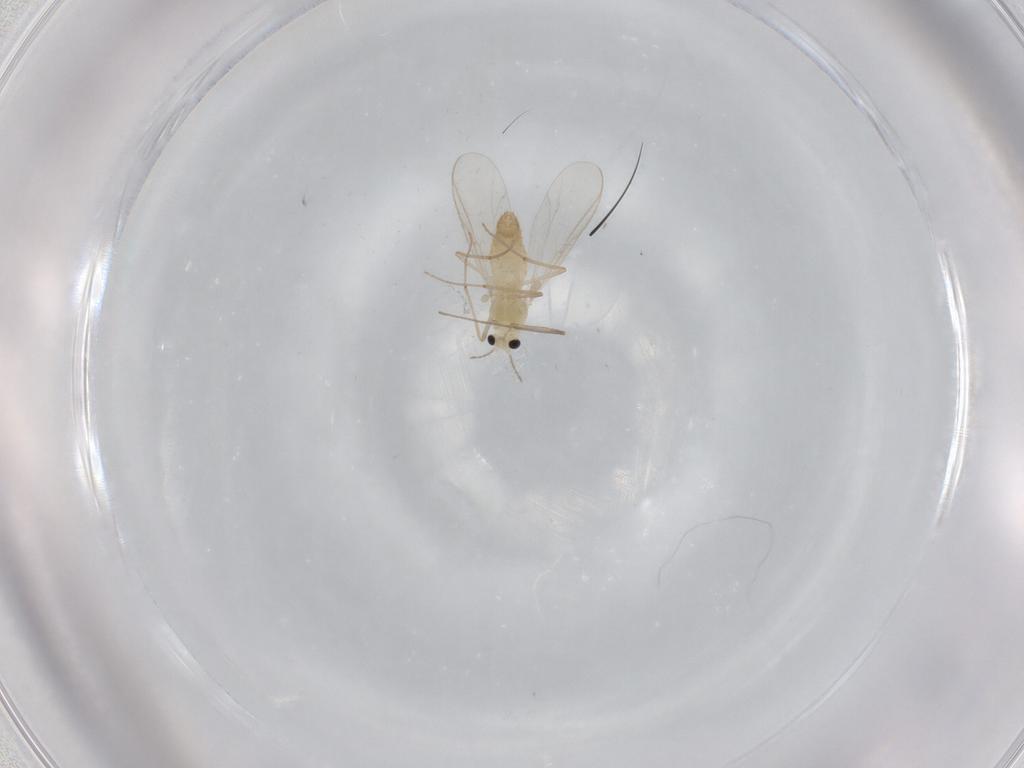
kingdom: Animalia
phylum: Arthropoda
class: Insecta
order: Diptera
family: Chironomidae
